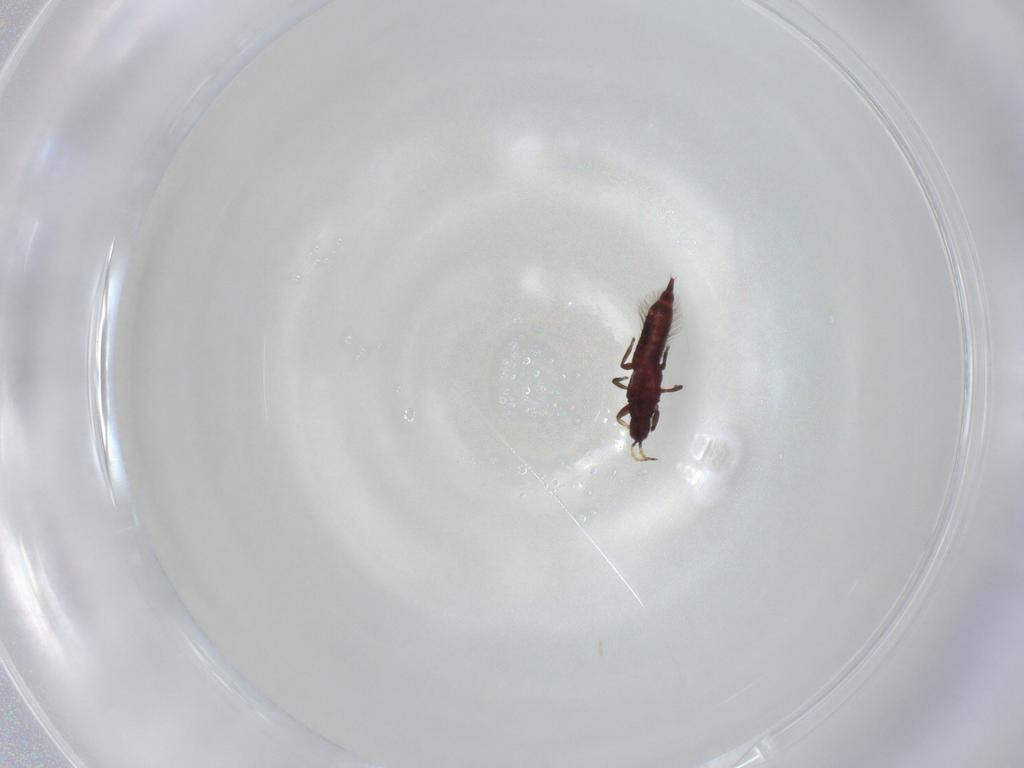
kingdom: Animalia
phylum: Arthropoda
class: Insecta
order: Thysanoptera
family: Phlaeothripidae
